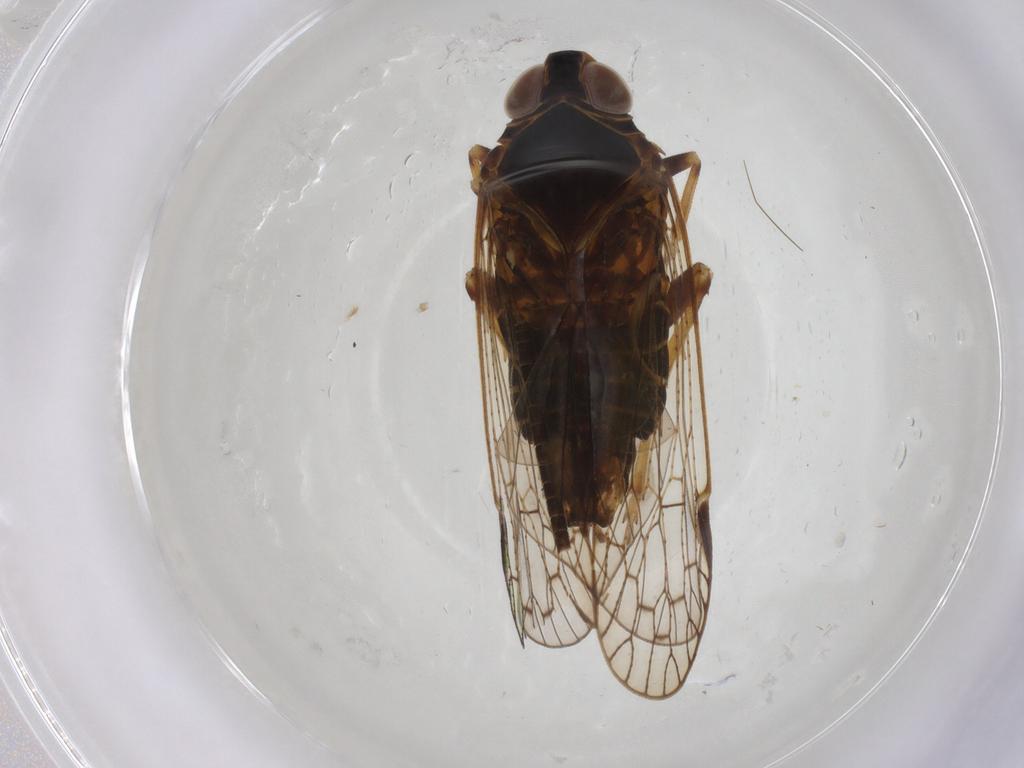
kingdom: Animalia
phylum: Arthropoda
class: Insecta
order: Hemiptera
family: Cixiidae
